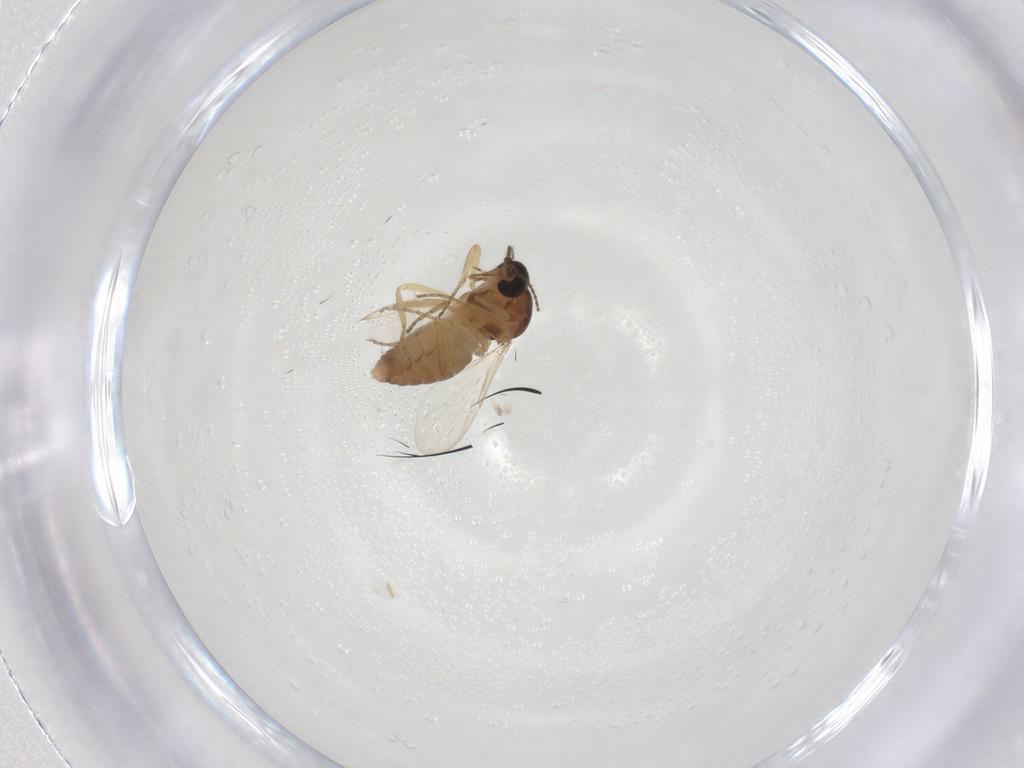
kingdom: Animalia
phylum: Arthropoda
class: Insecta
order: Diptera
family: Ceratopogonidae
